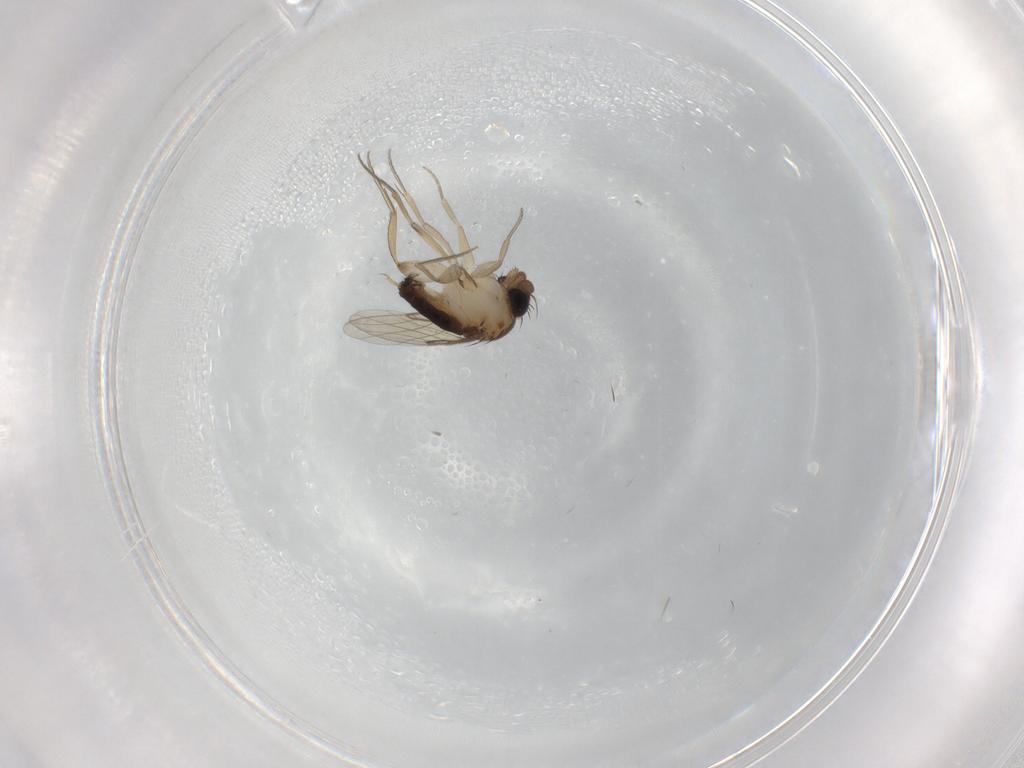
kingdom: Animalia
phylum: Arthropoda
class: Insecta
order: Diptera
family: Phoridae
